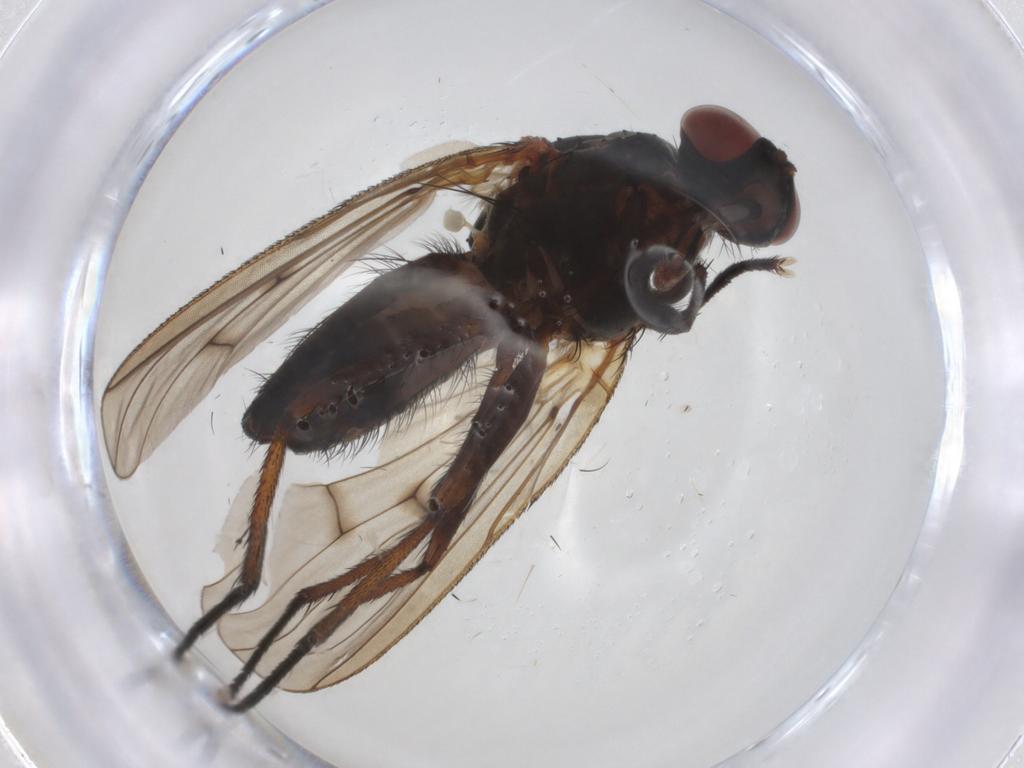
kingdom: Animalia
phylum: Arthropoda
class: Insecta
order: Diptera
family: Anthomyiidae
